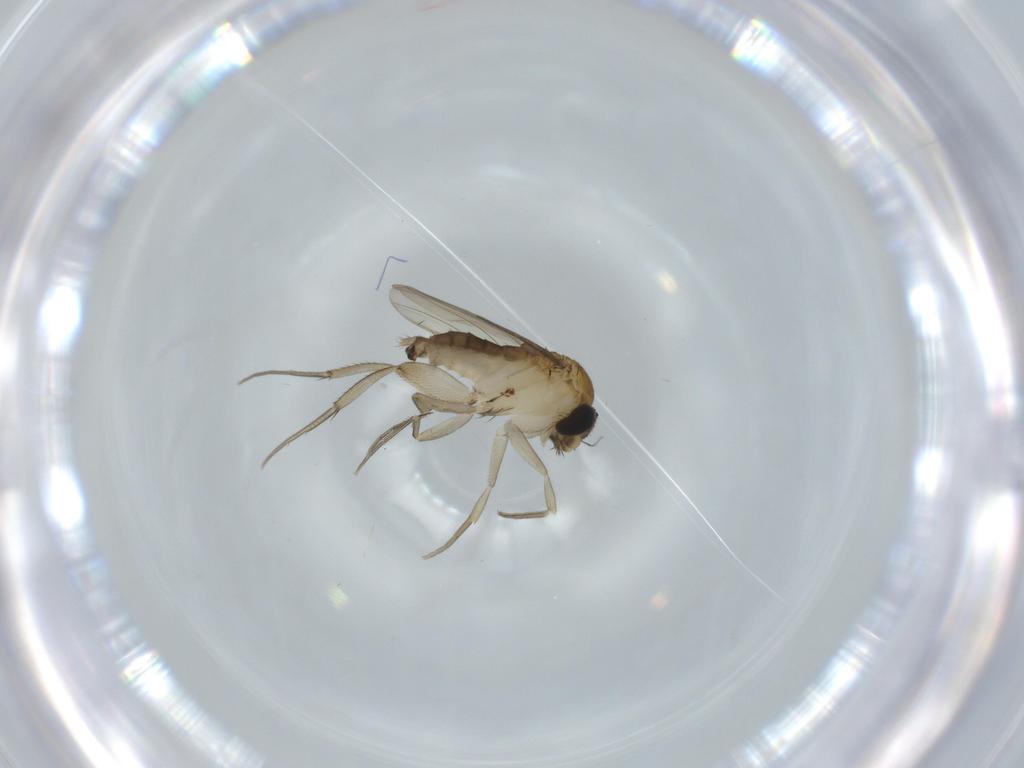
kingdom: Animalia
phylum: Arthropoda
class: Insecta
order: Diptera
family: Phoridae
